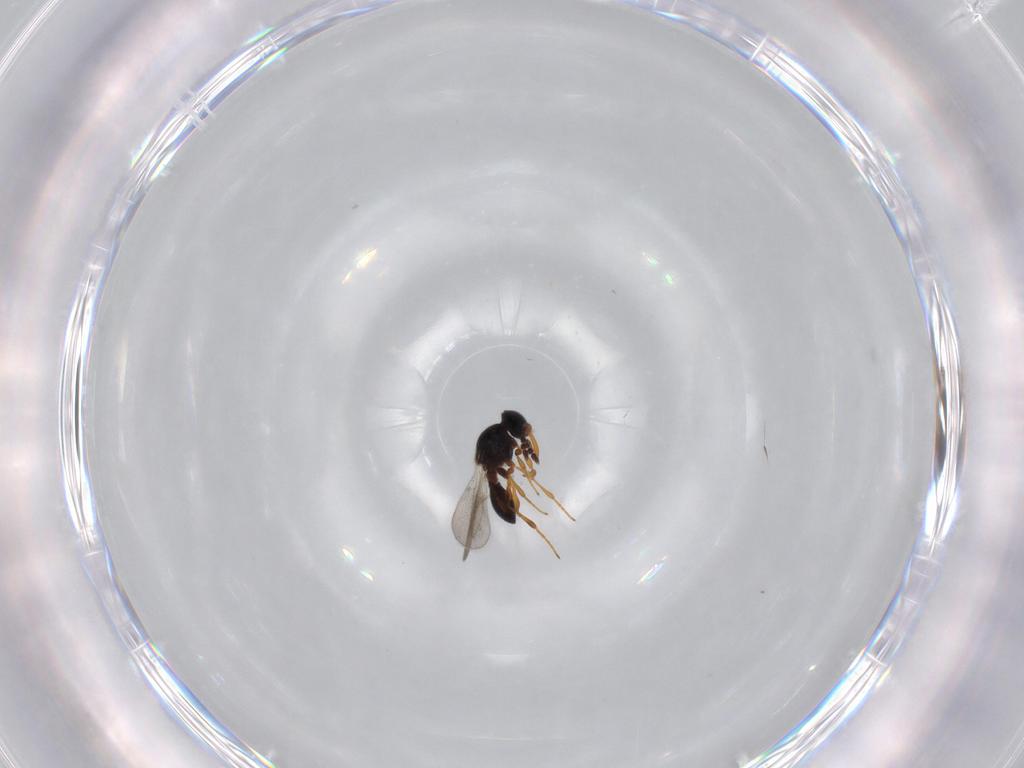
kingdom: Animalia
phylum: Arthropoda
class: Insecta
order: Hymenoptera
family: Platygastridae
